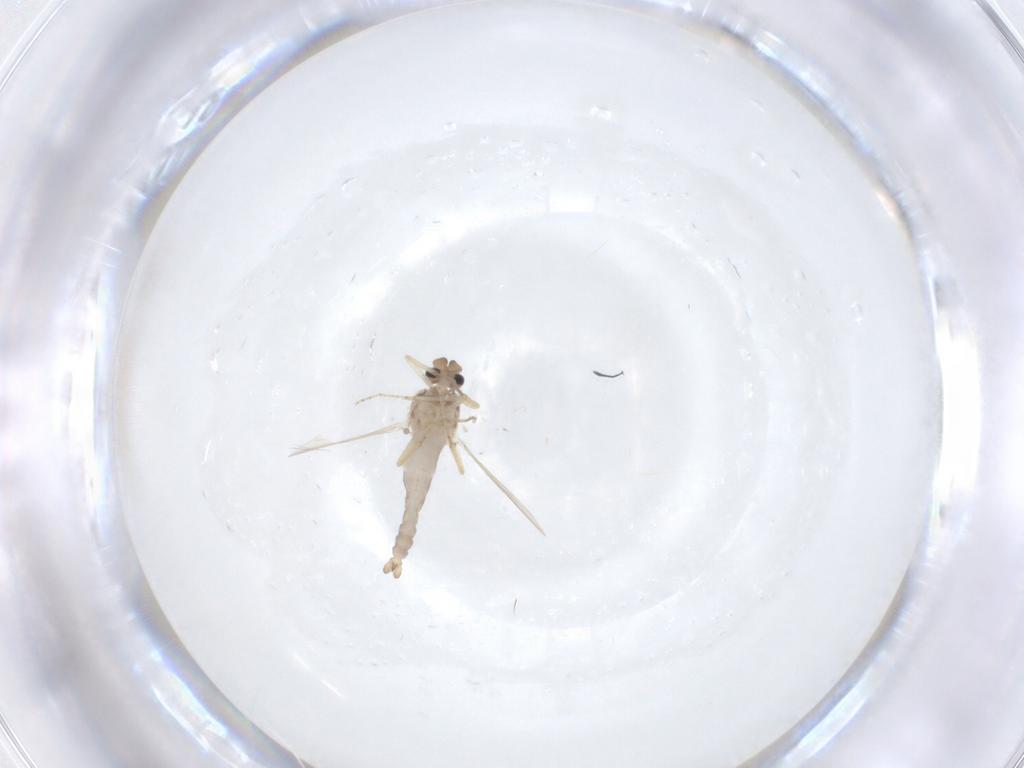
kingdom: Animalia
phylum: Arthropoda
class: Insecta
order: Diptera
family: Ceratopogonidae
